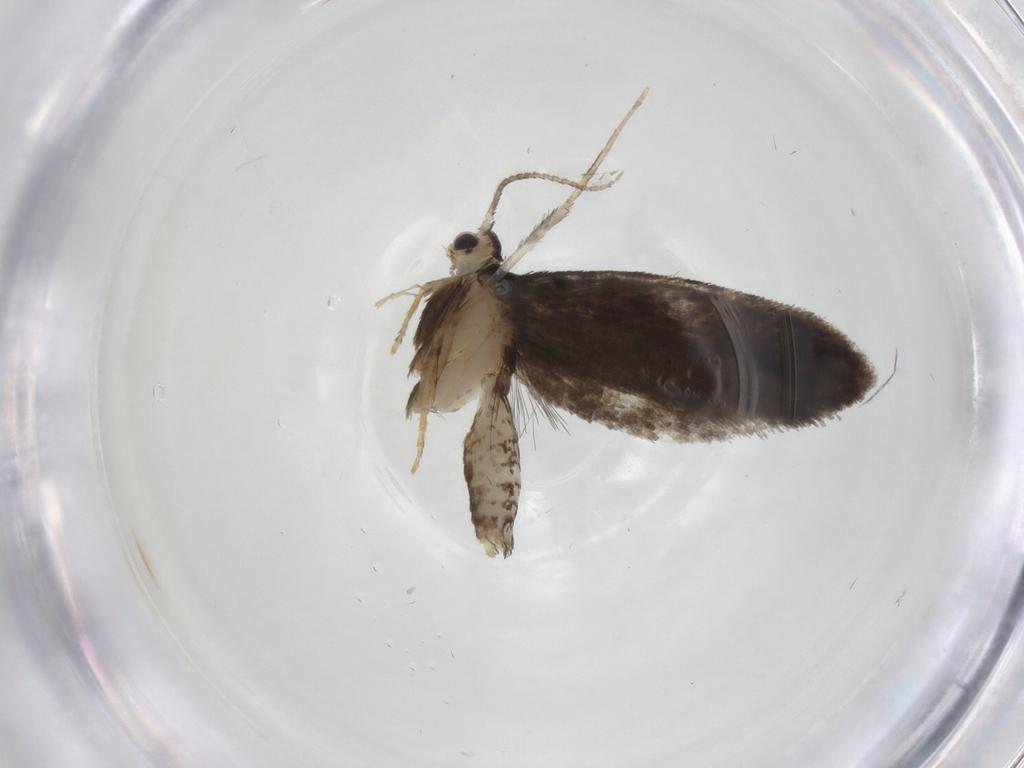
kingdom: Animalia
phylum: Arthropoda
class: Insecta
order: Lepidoptera
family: Psychidae
